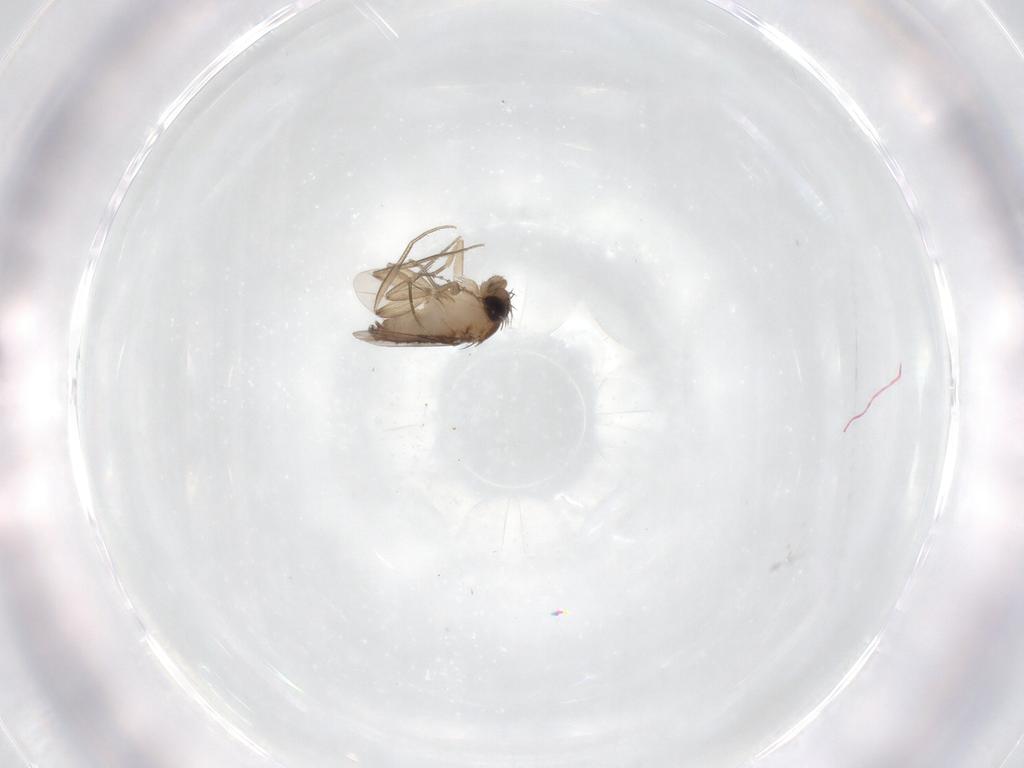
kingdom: Animalia
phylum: Arthropoda
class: Insecta
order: Diptera
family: Phoridae
